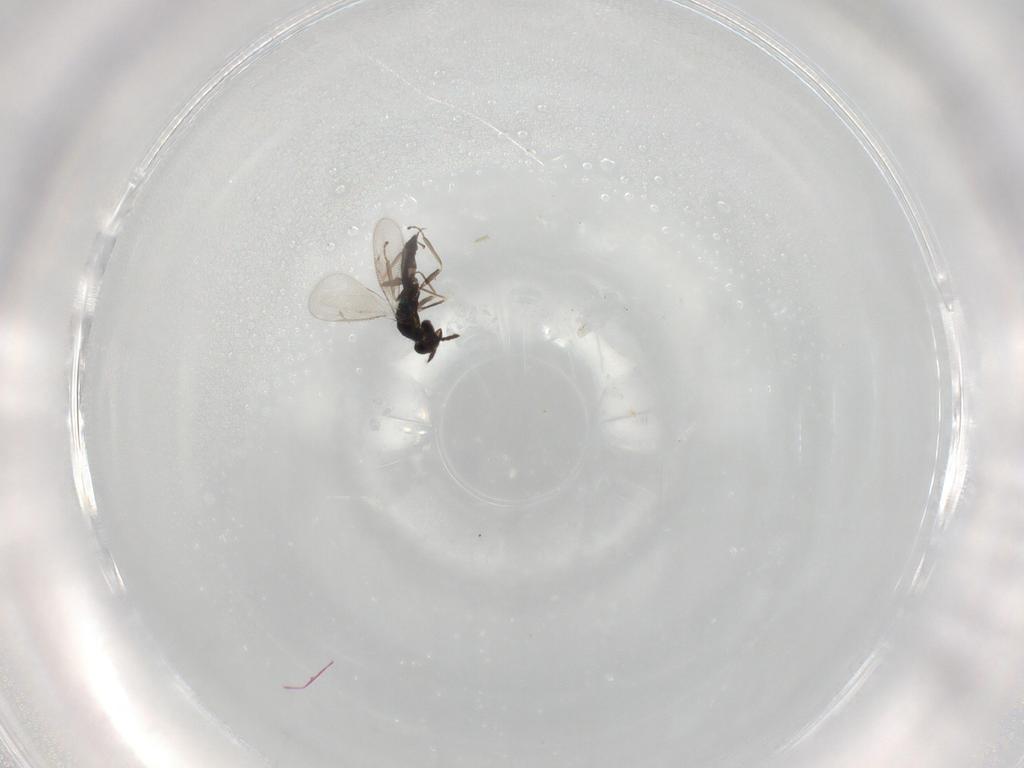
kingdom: Animalia
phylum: Arthropoda
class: Insecta
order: Hymenoptera
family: Eulophidae
